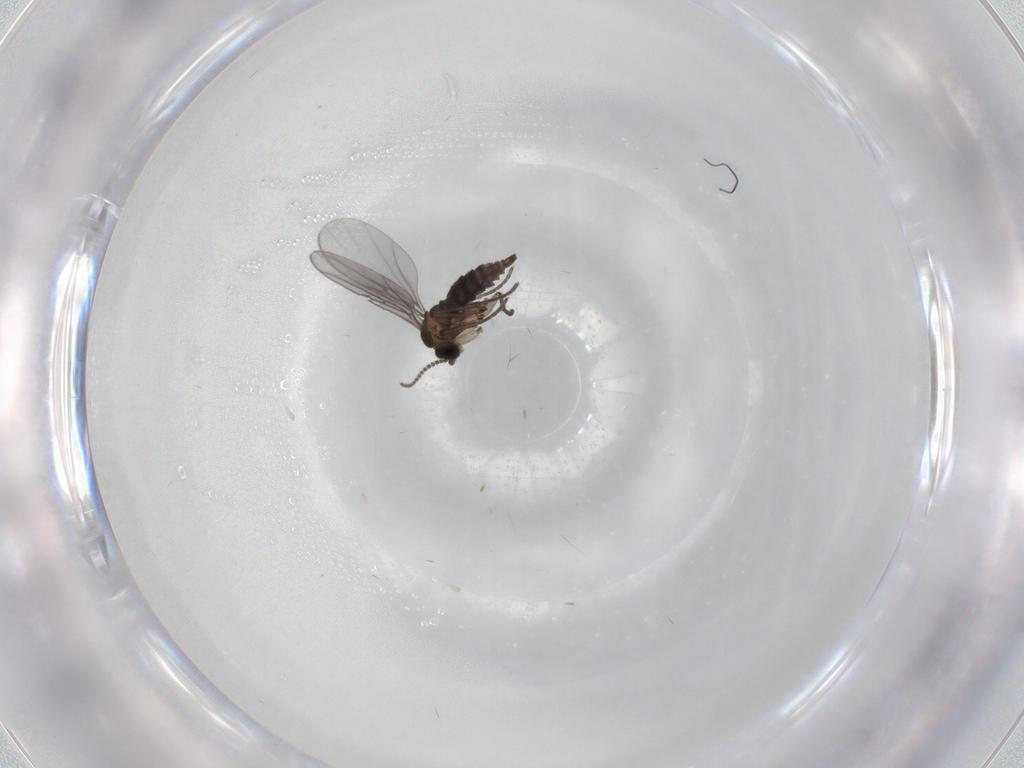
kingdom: Animalia
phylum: Arthropoda
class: Insecta
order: Diptera
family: Sciaridae
